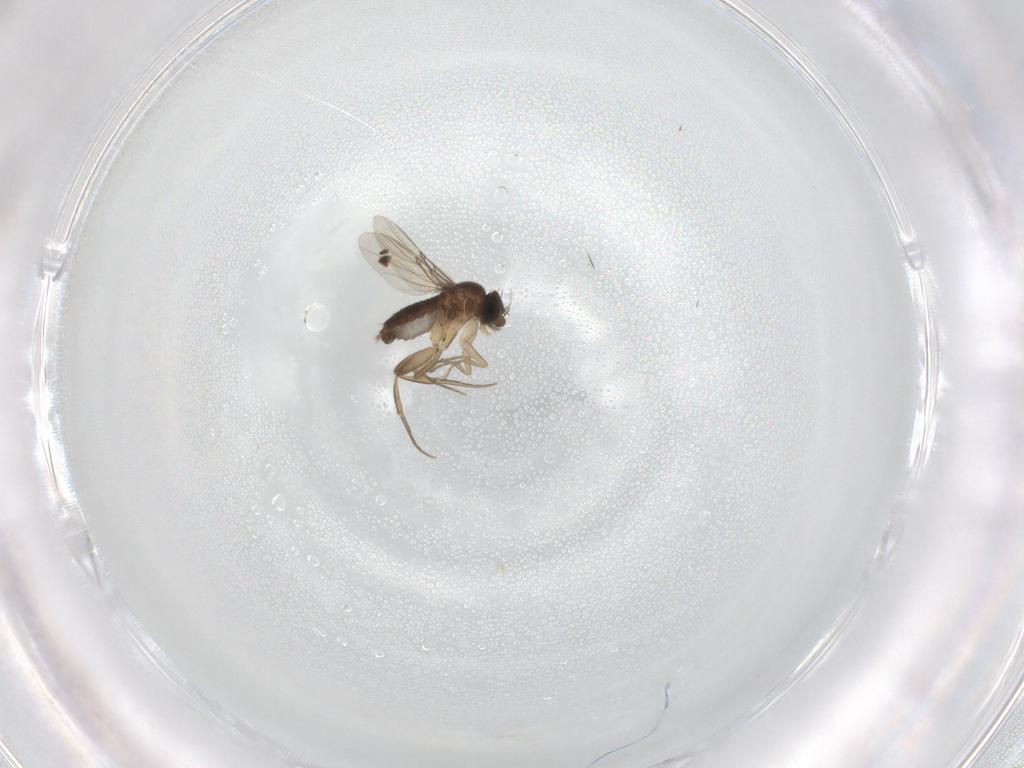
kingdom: Animalia
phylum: Arthropoda
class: Insecta
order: Diptera
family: Phoridae
